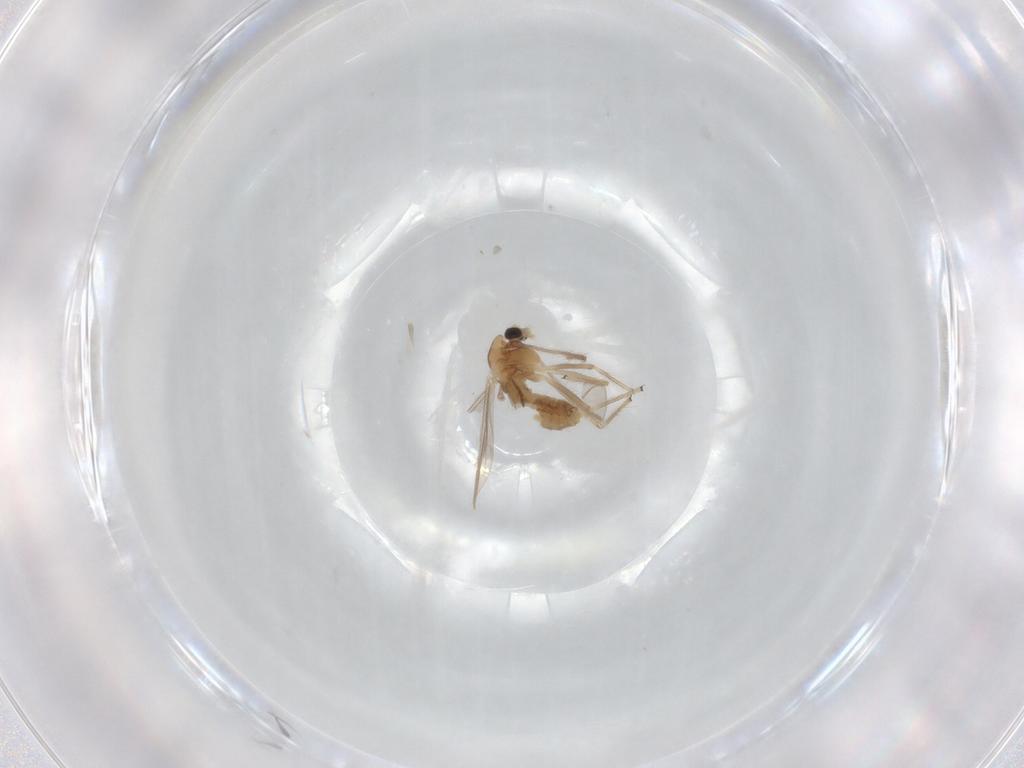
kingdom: Animalia
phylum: Arthropoda
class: Insecta
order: Diptera
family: Chironomidae
